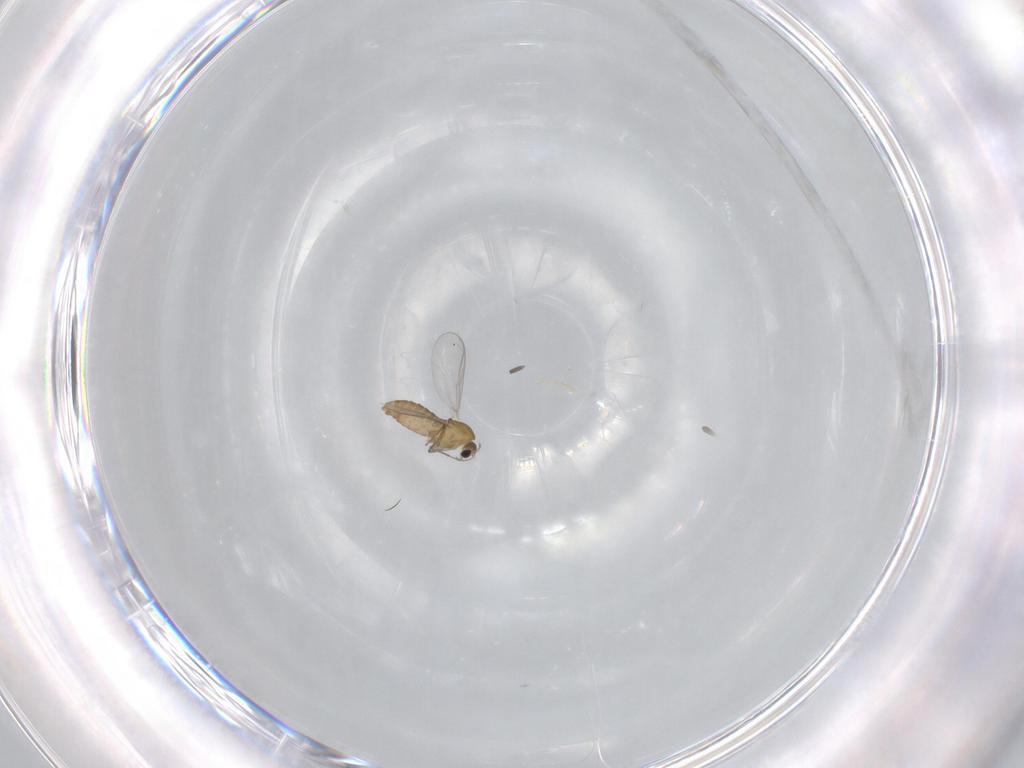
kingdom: Animalia
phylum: Arthropoda
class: Insecta
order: Diptera
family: Chironomidae
